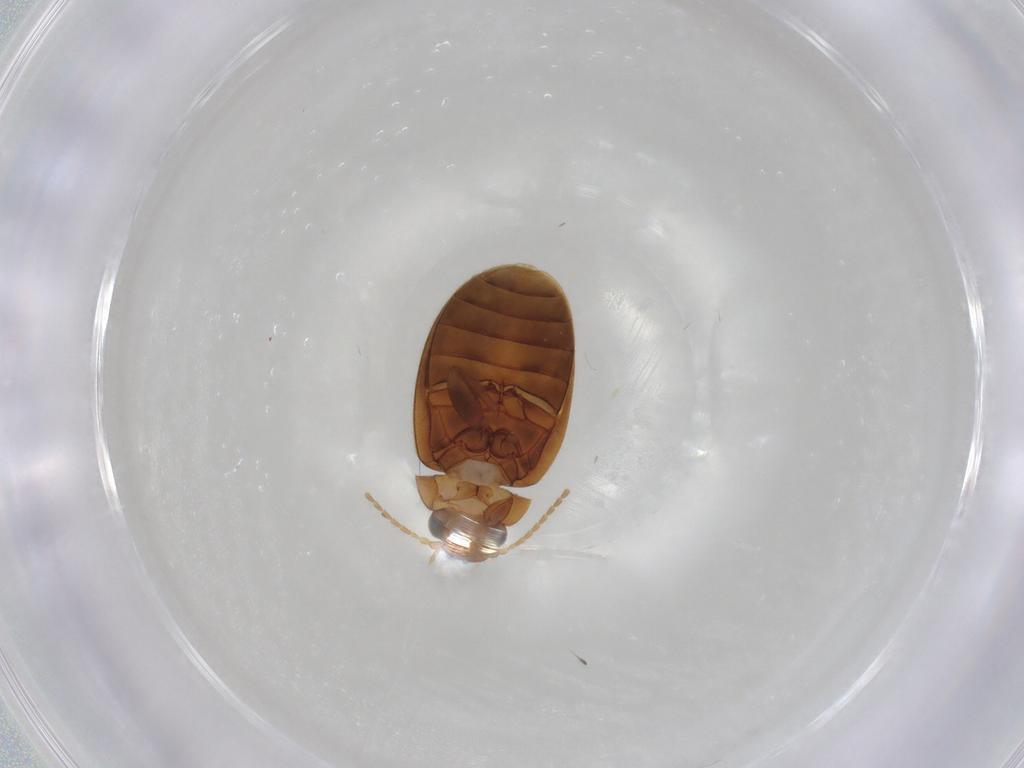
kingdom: Animalia
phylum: Arthropoda
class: Insecta
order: Coleoptera
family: Scirtidae
